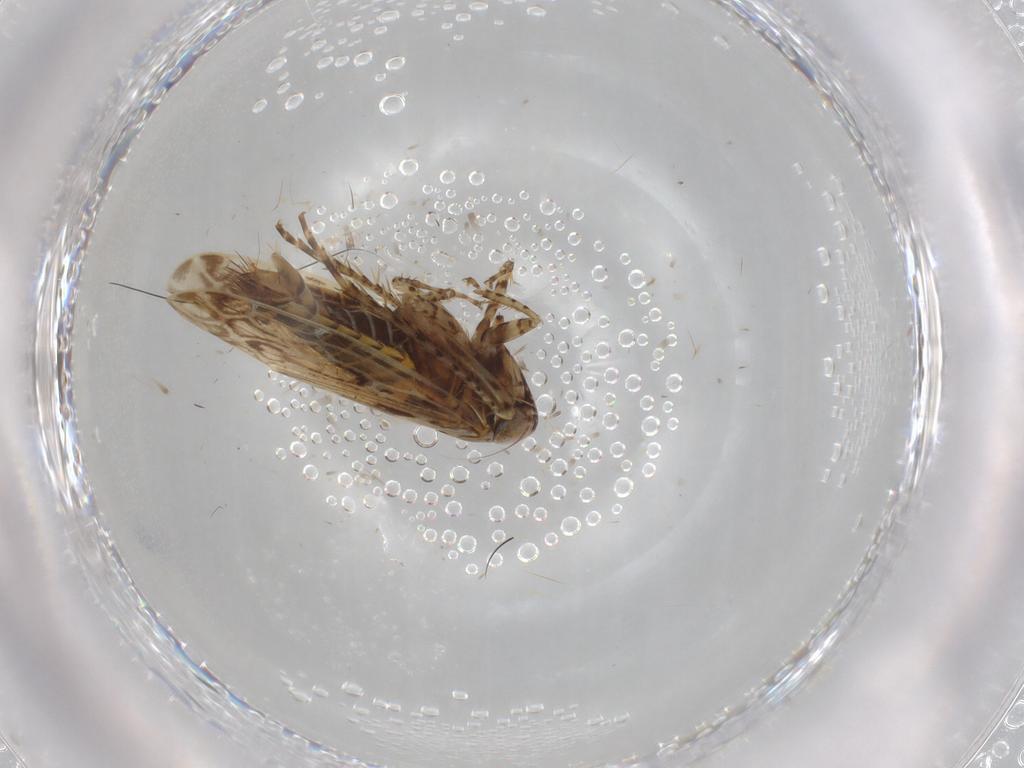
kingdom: Animalia
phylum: Arthropoda
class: Insecta
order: Hemiptera
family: Cicadellidae
